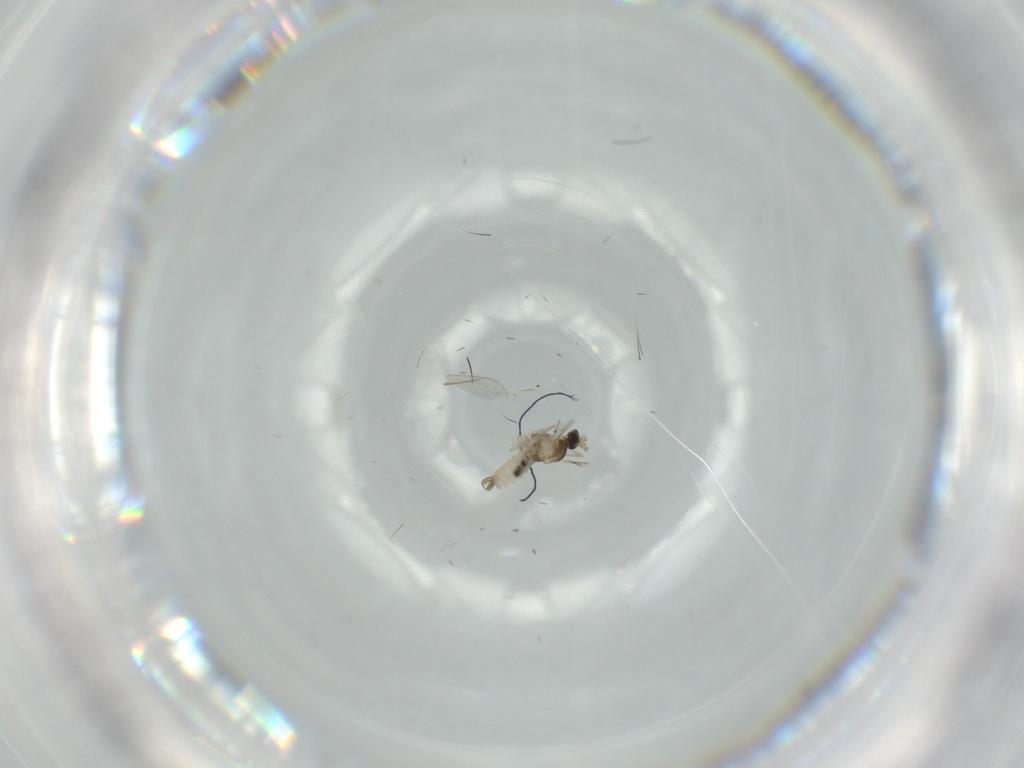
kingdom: Animalia
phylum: Arthropoda
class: Insecta
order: Diptera
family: Cecidomyiidae
